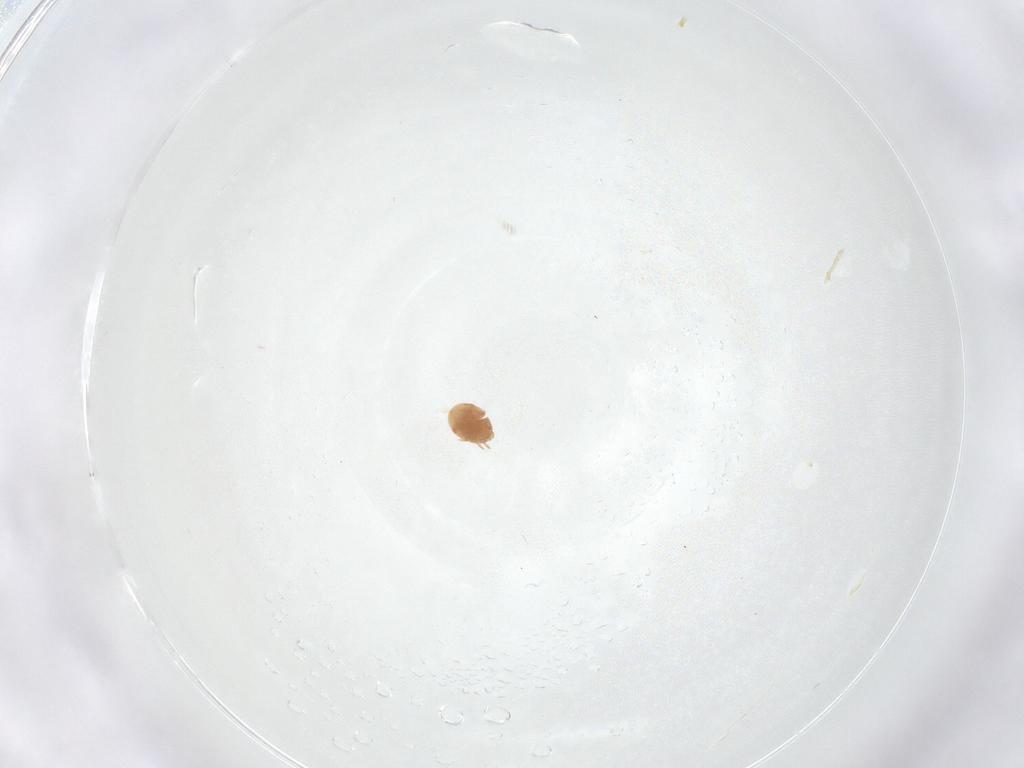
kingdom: Animalia
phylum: Arthropoda
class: Arachnida
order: Mesostigmata
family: Trematuridae
